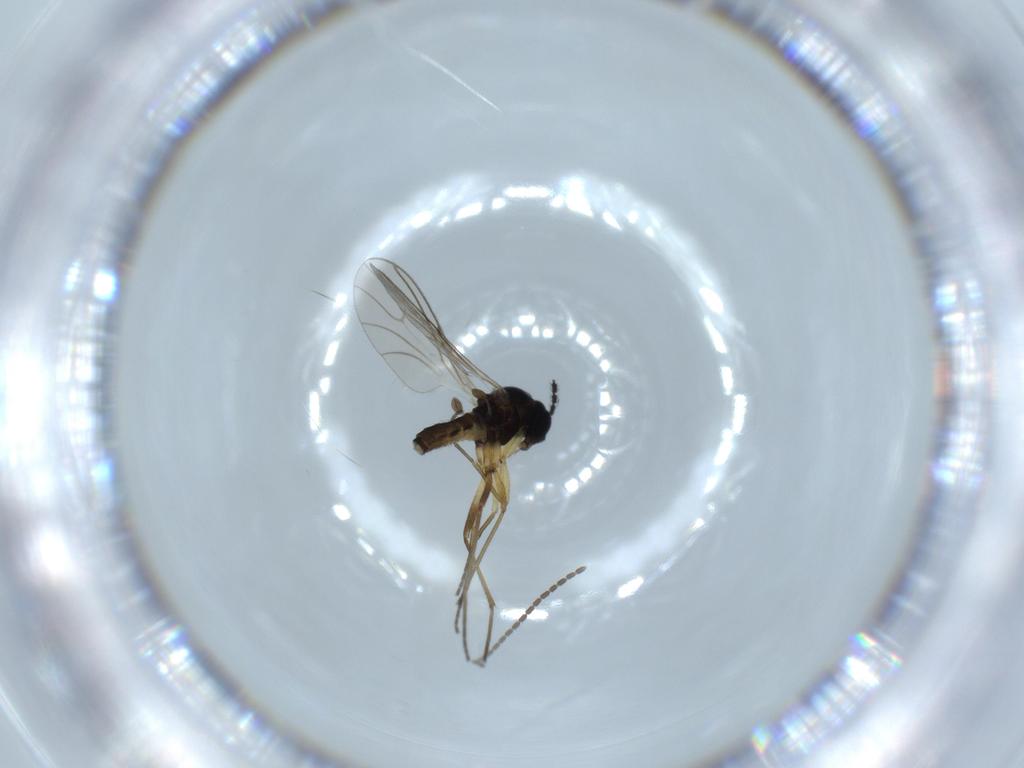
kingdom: Animalia
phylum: Arthropoda
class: Insecta
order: Diptera
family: Sciaridae
